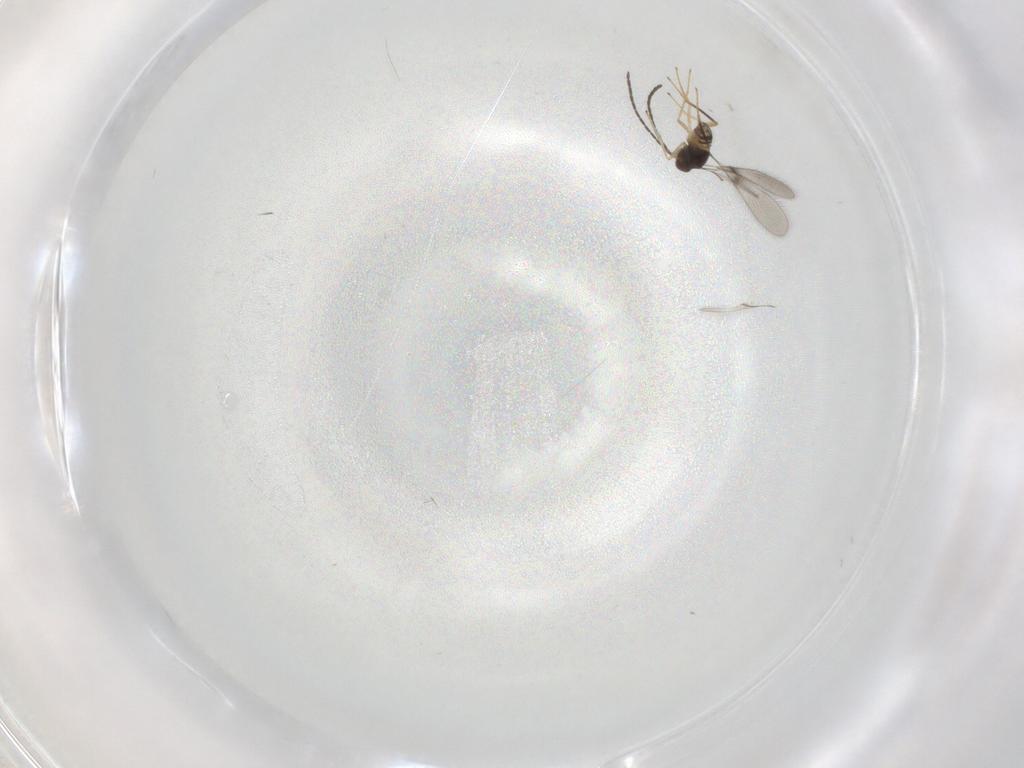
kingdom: Animalia
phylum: Arthropoda
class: Insecta
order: Hymenoptera
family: Mymaridae
